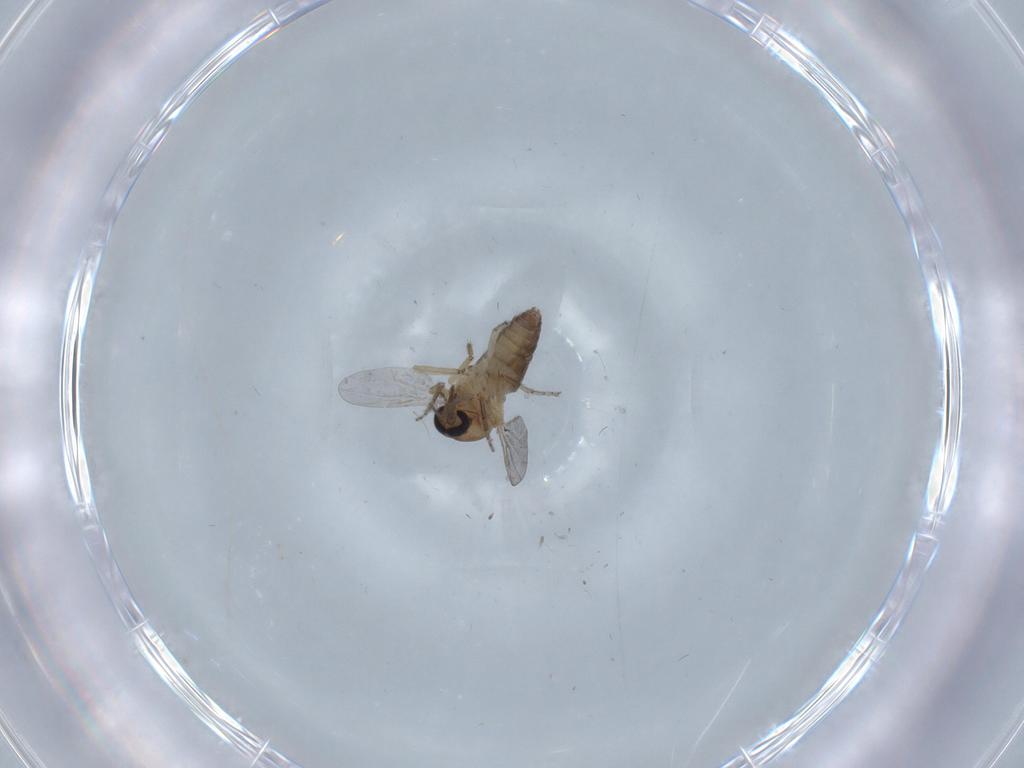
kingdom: Animalia
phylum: Arthropoda
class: Insecta
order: Diptera
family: Ceratopogonidae
